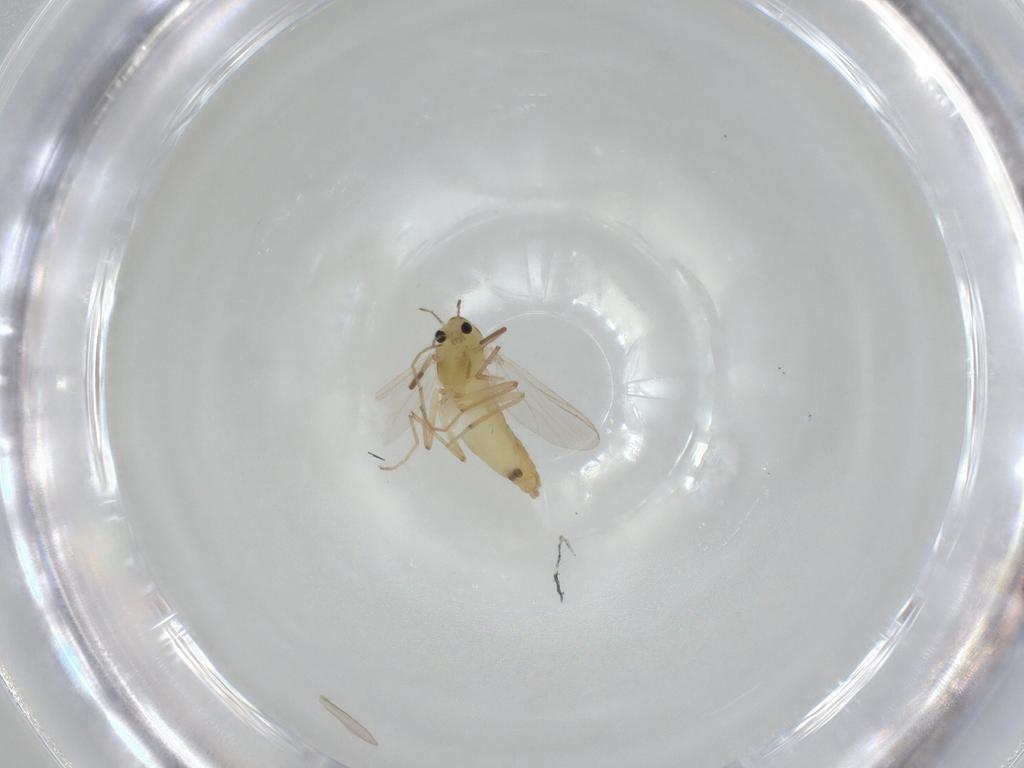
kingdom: Animalia
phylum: Arthropoda
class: Insecta
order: Diptera
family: Chironomidae
